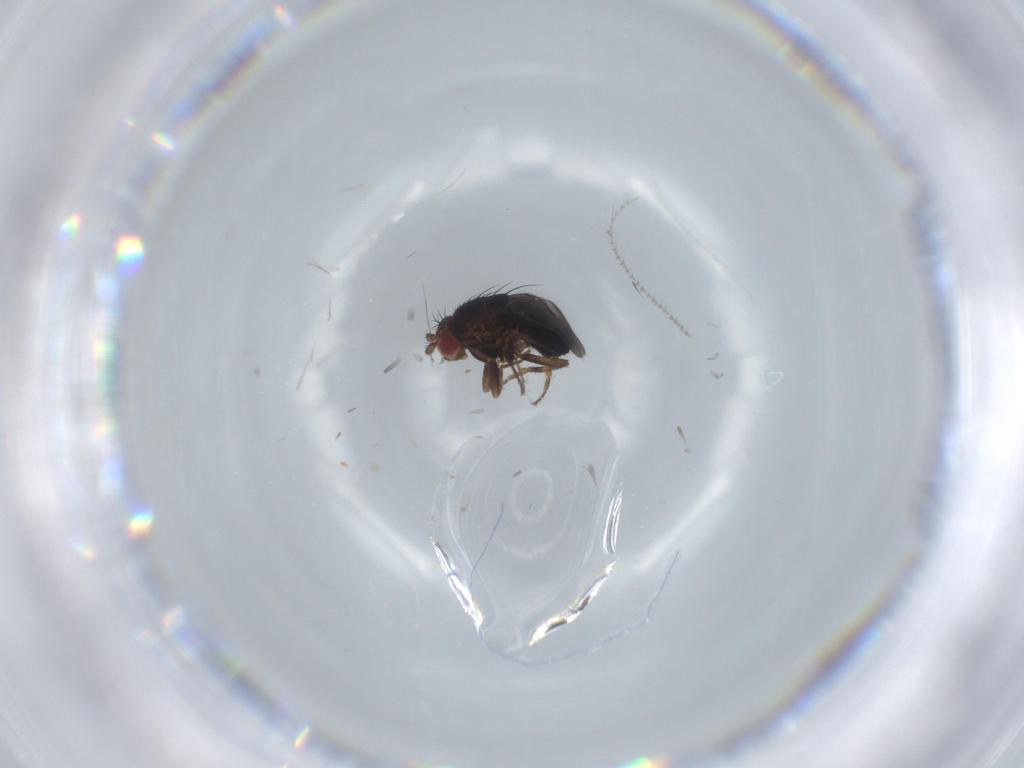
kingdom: Animalia
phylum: Arthropoda
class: Insecta
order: Diptera
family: Sphaeroceridae
